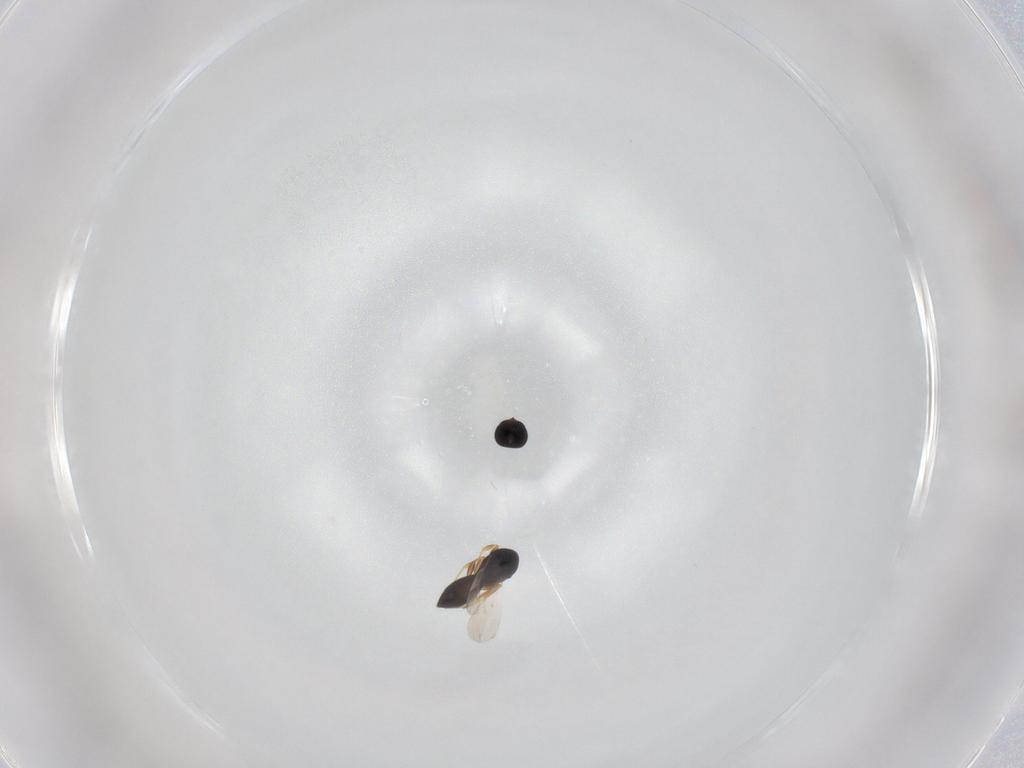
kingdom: Animalia
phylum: Arthropoda
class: Insecta
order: Hymenoptera
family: Scelionidae
